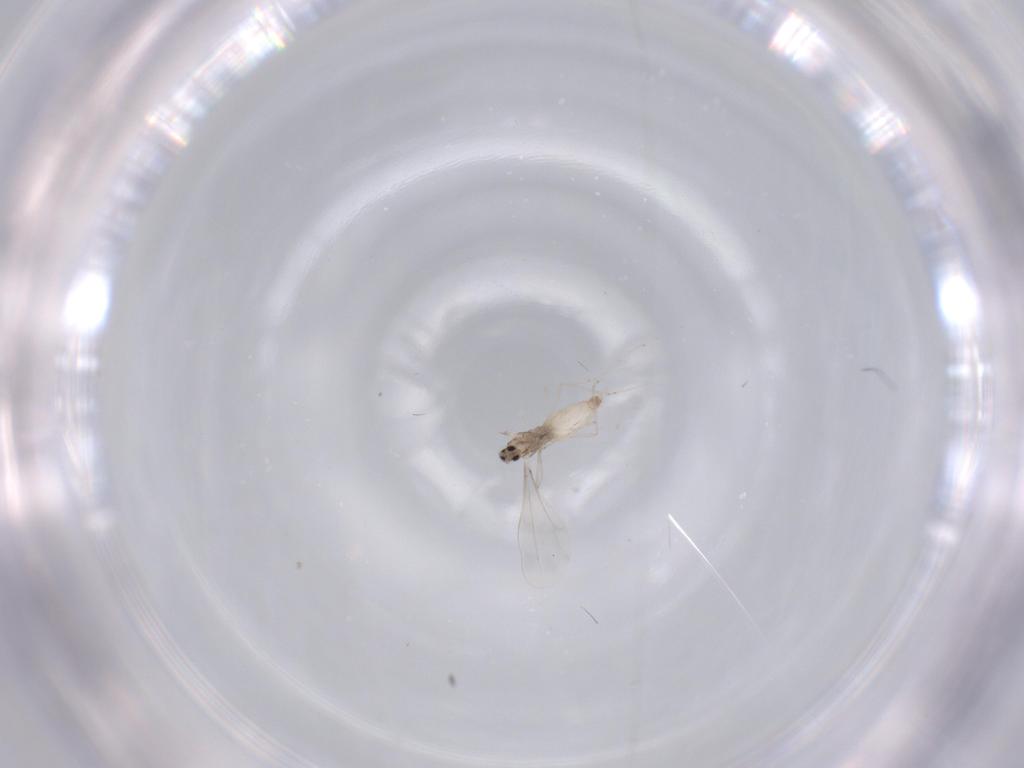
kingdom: Animalia
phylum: Arthropoda
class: Insecta
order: Diptera
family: Cecidomyiidae
